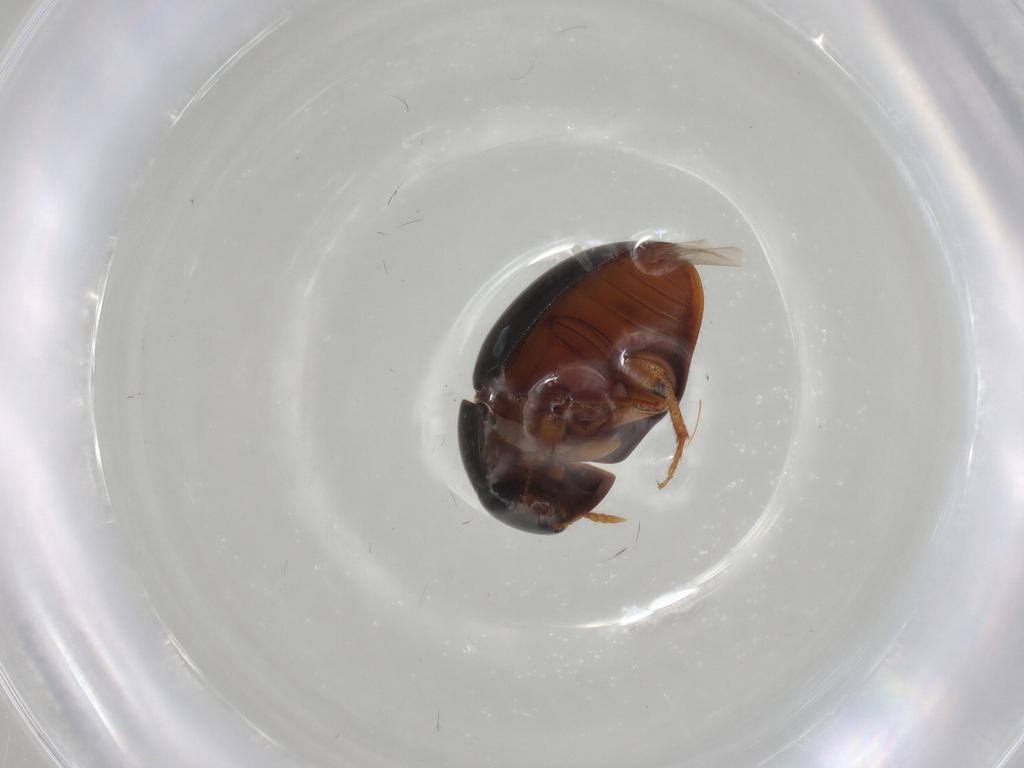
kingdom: Animalia
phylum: Arthropoda
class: Insecta
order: Coleoptera
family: Phalacridae
